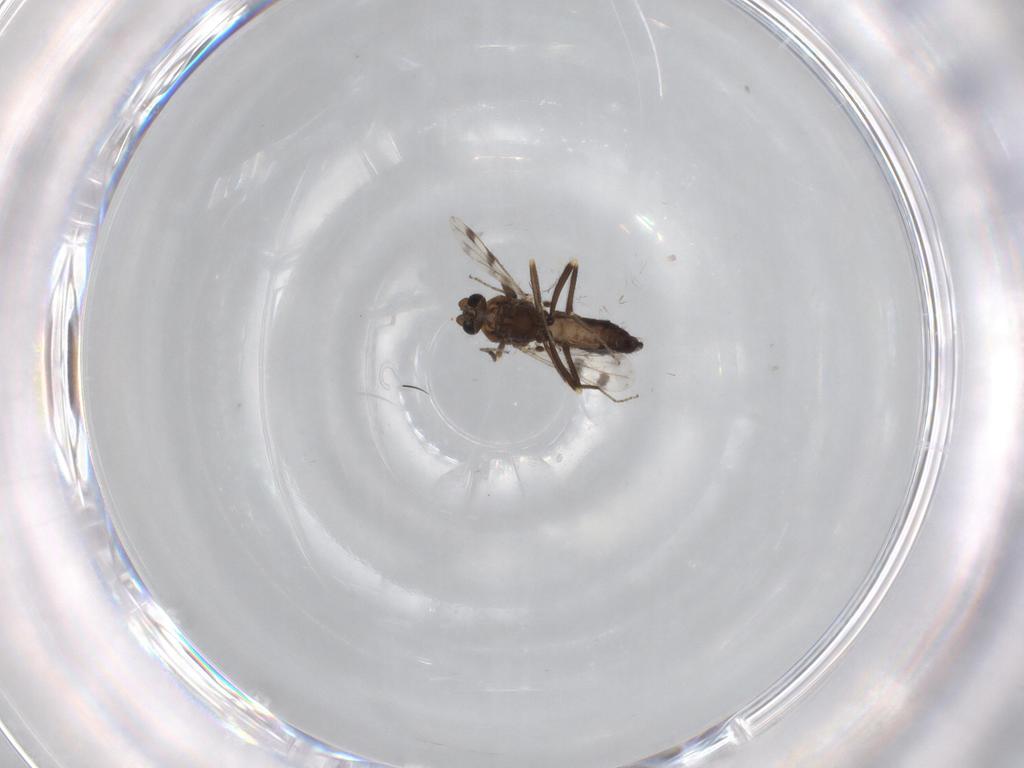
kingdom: Animalia
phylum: Arthropoda
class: Insecta
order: Diptera
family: Ceratopogonidae
